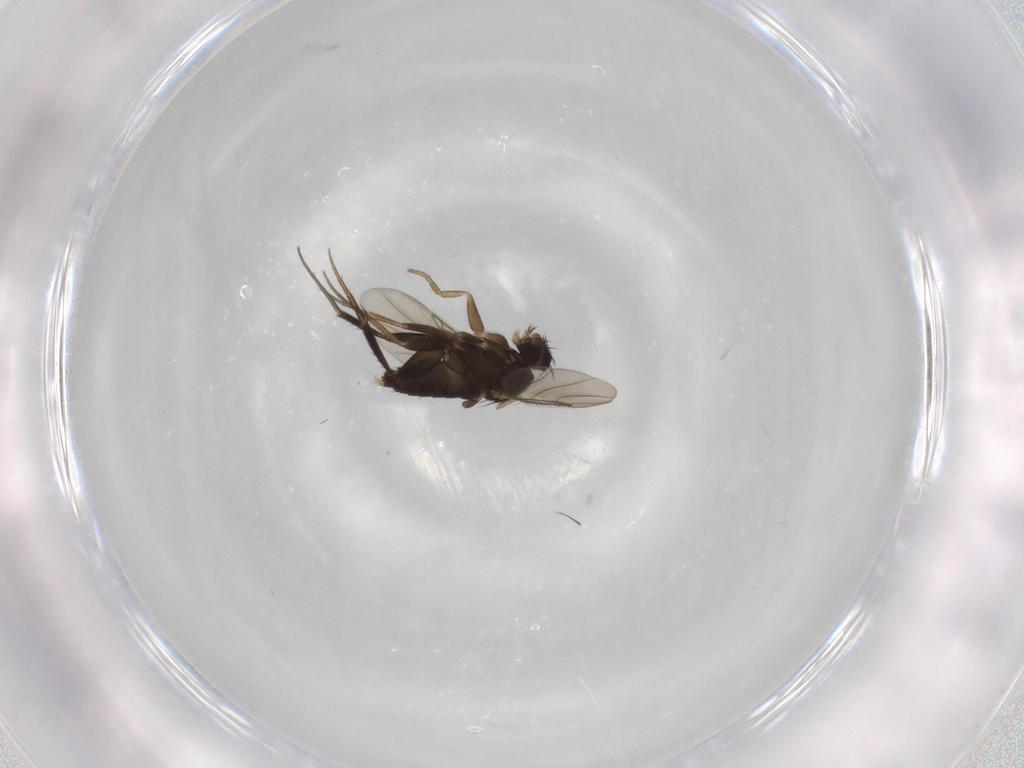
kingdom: Animalia
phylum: Arthropoda
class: Insecta
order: Diptera
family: Phoridae
